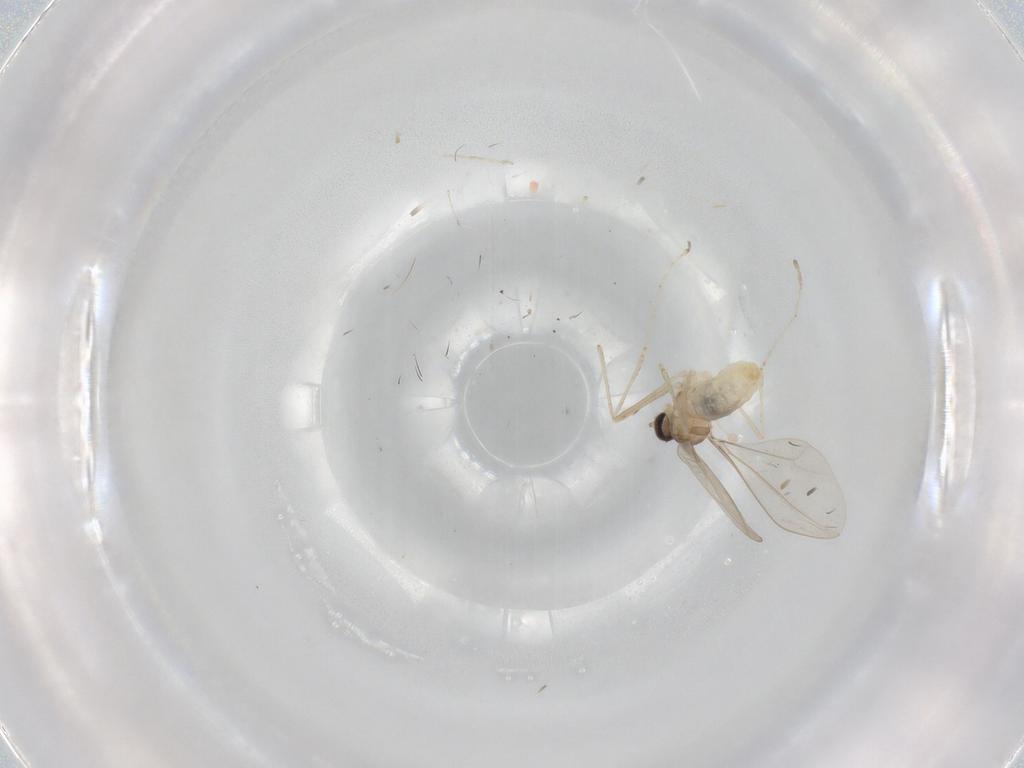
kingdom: Animalia
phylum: Arthropoda
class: Insecta
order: Diptera
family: Cecidomyiidae
